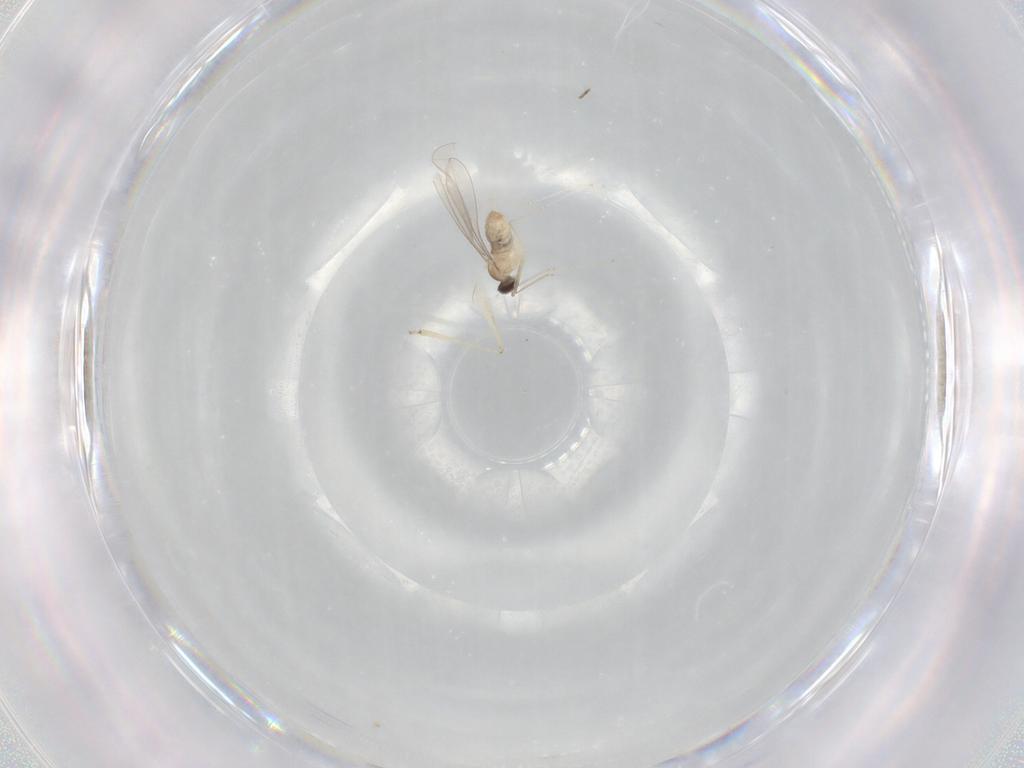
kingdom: Animalia
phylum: Arthropoda
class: Insecta
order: Diptera
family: Cecidomyiidae
